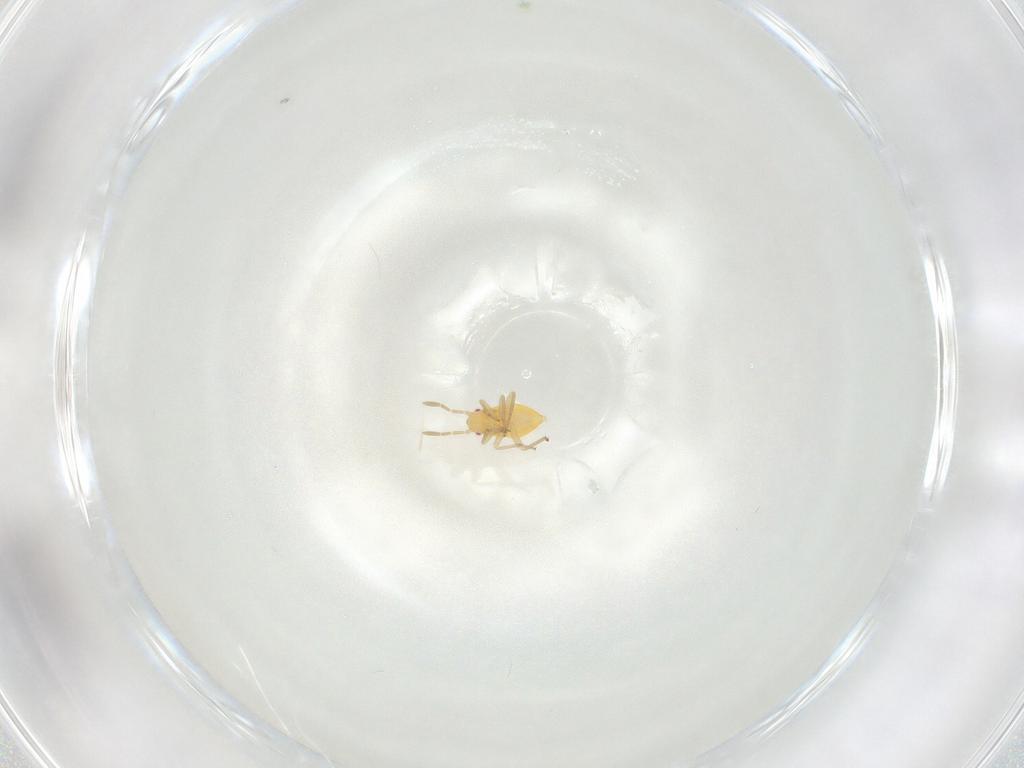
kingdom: Animalia
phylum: Arthropoda
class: Insecta
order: Hemiptera
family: Miridae
